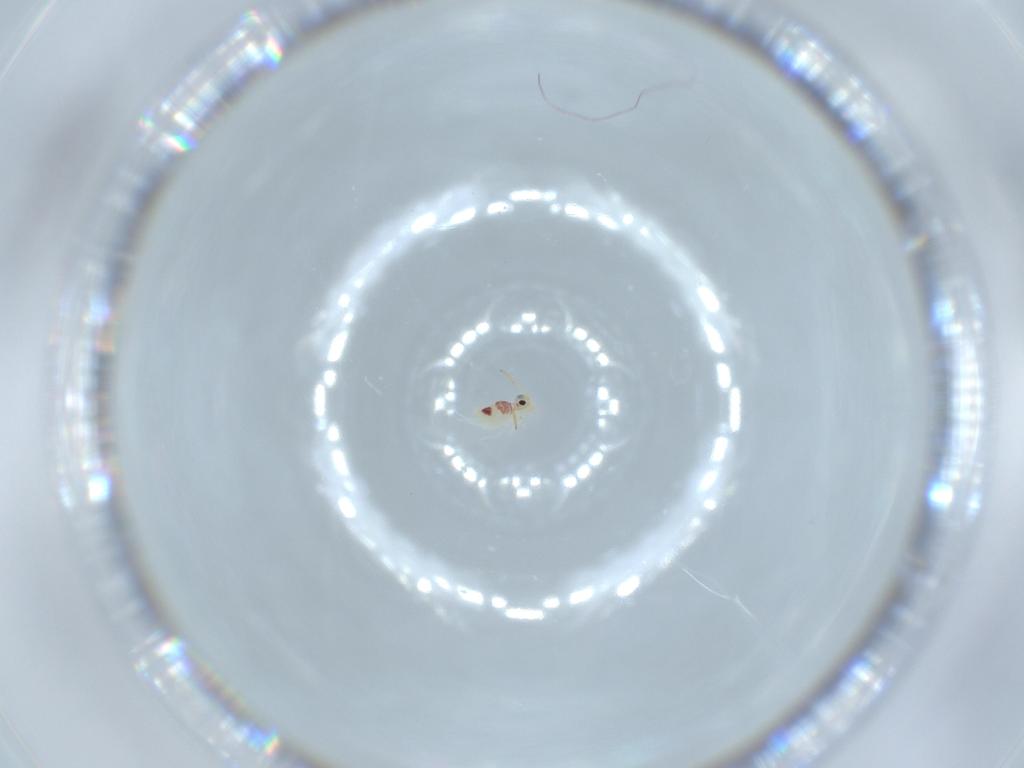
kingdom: Animalia
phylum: Arthropoda
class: Collembola
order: Symphypleona
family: Bourletiellidae
